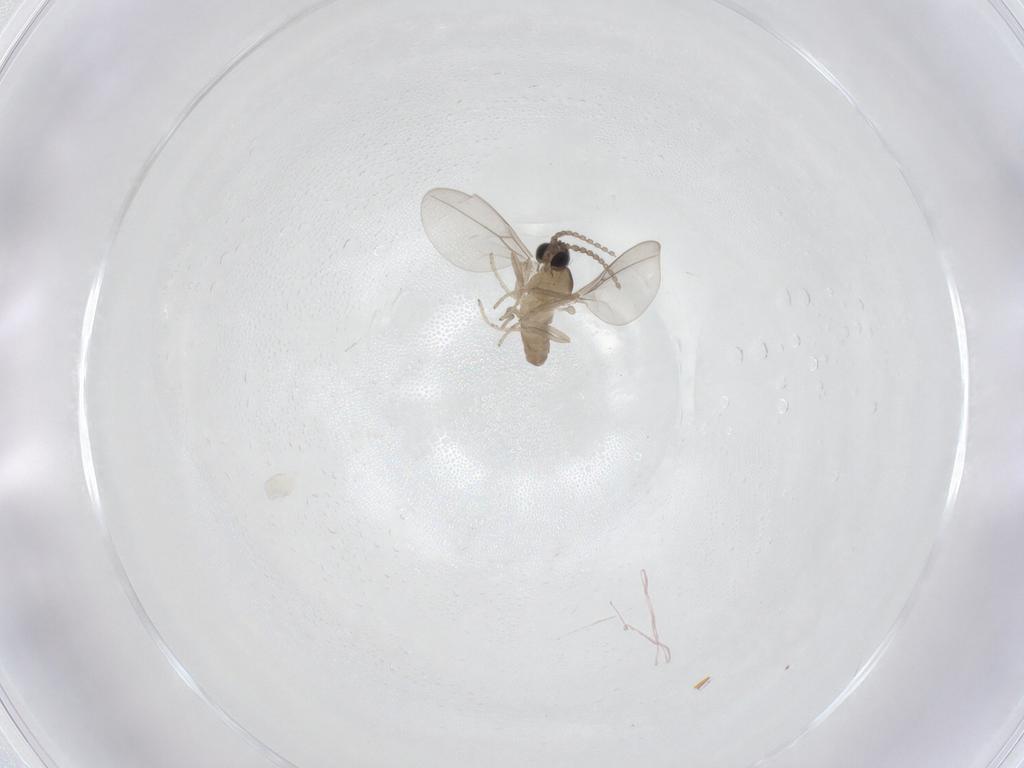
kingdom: Animalia
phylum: Arthropoda
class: Insecta
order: Diptera
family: Cecidomyiidae
